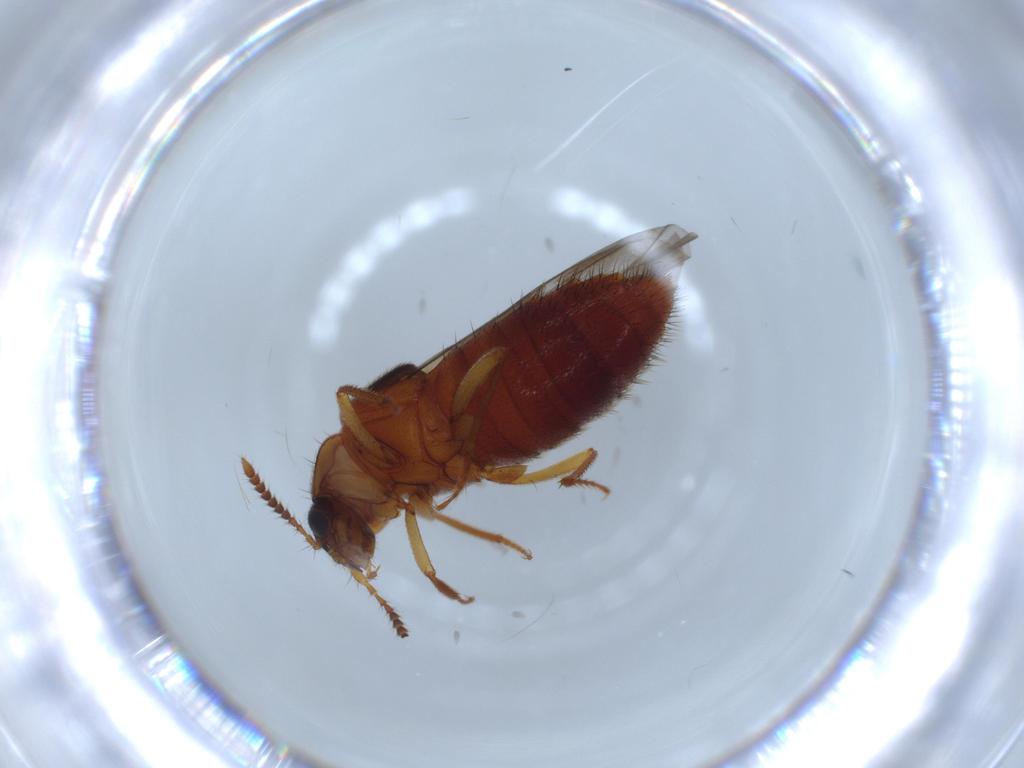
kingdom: Animalia
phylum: Arthropoda
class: Insecta
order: Coleoptera
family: Staphylinidae
